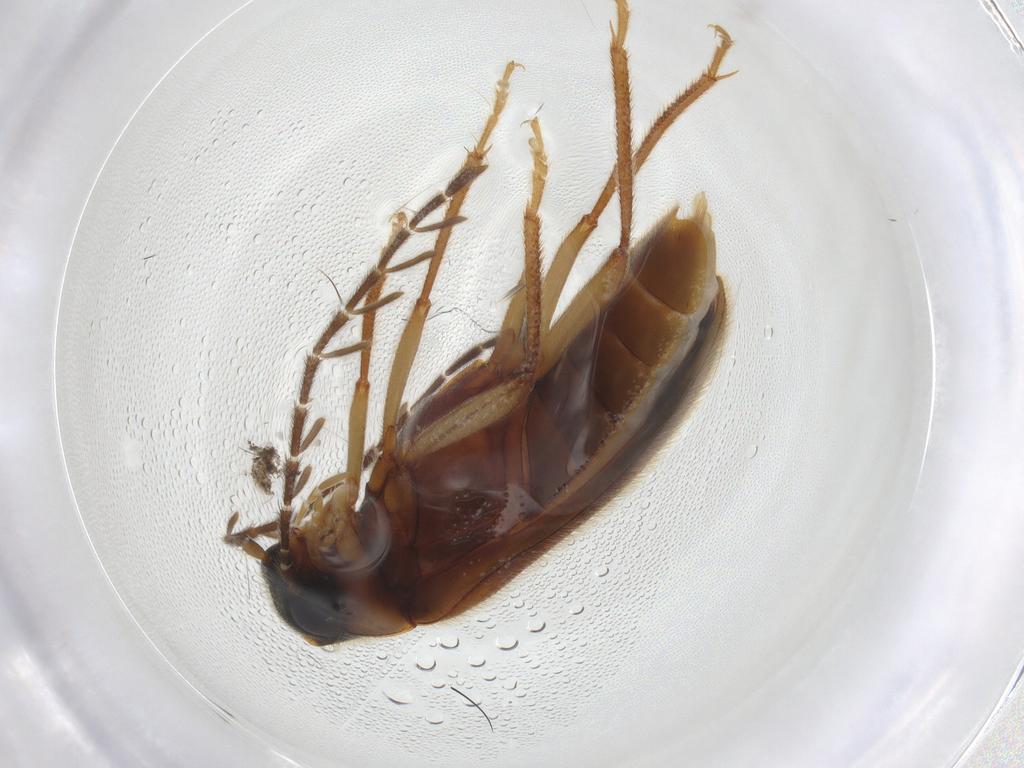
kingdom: Animalia
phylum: Arthropoda
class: Insecta
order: Coleoptera
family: Ptilodactylidae
